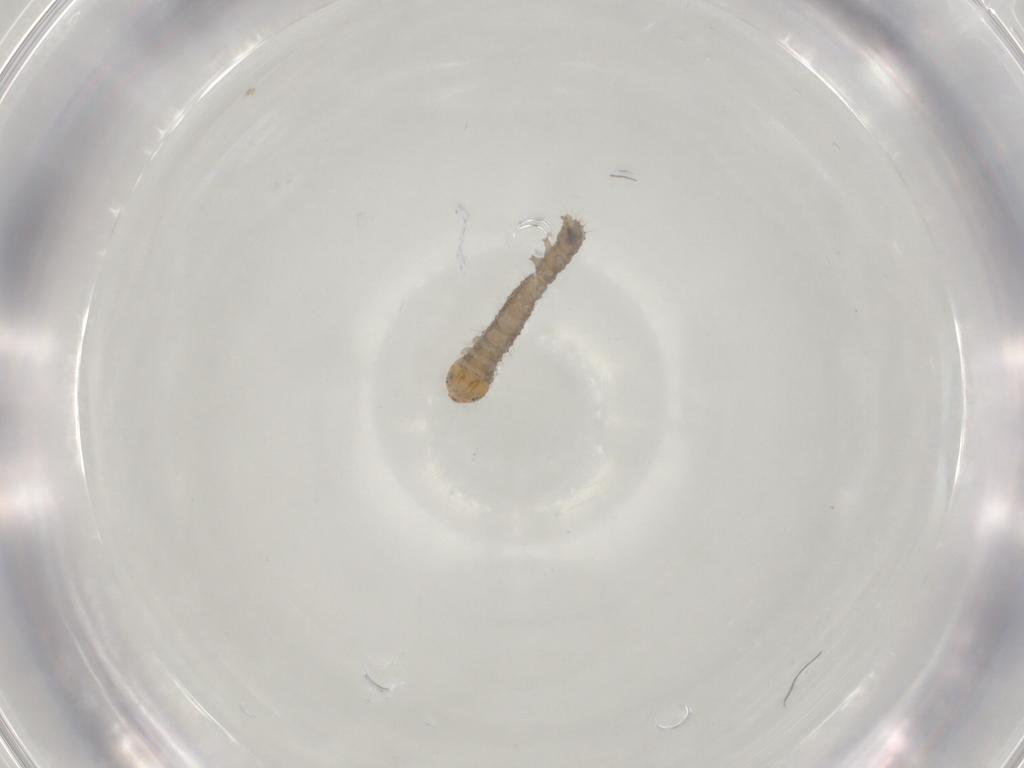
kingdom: Animalia
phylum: Arthropoda
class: Insecta
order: Lepidoptera
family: Erebidae
